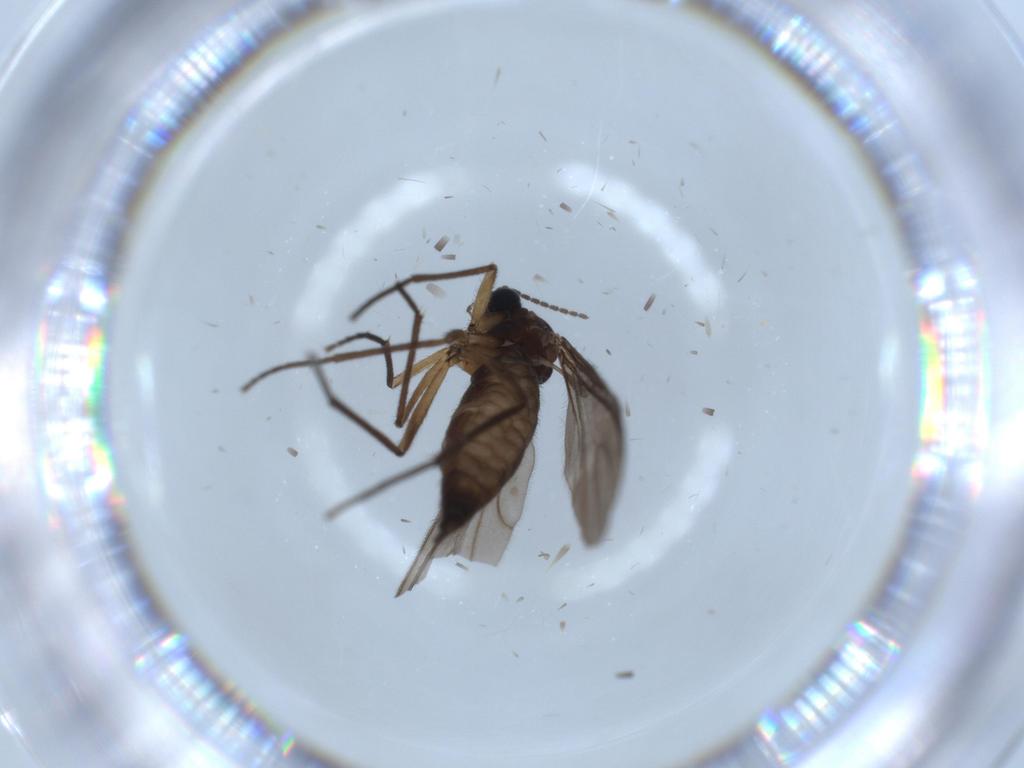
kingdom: Animalia
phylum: Arthropoda
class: Insecta
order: Diptera
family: Sciaridae
